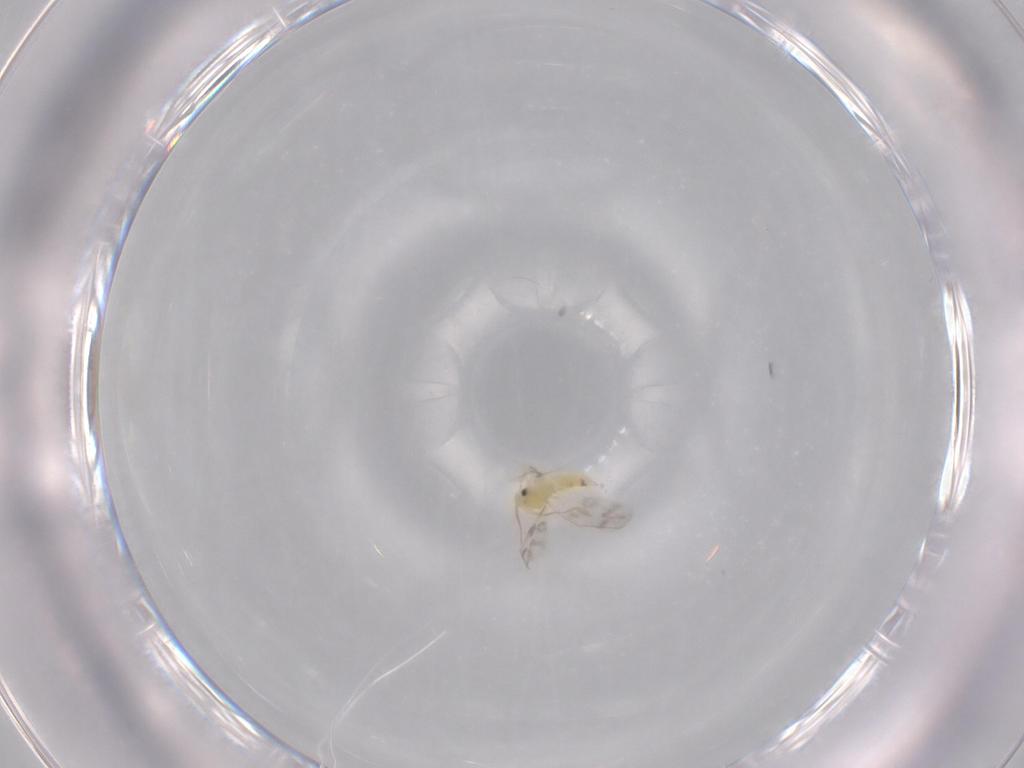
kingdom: Animalia
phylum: Arthropoda
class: Insecta
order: Hemiptera
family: Aleyrodidae
